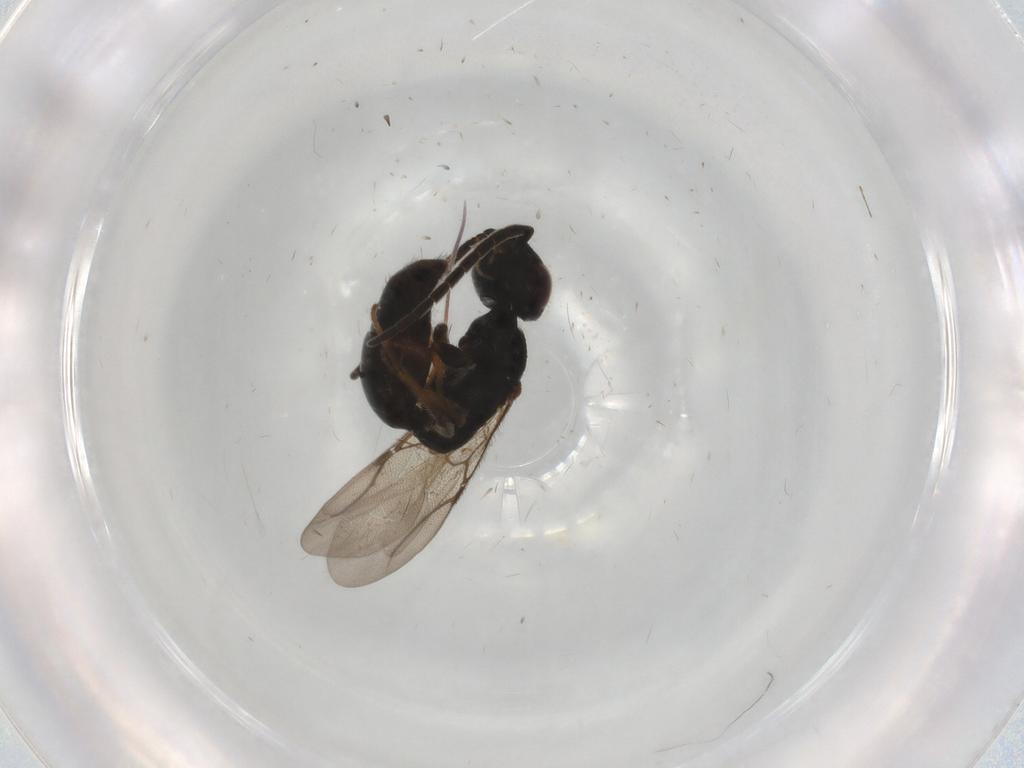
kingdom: Animalia
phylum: Arthropoda
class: Insecta
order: Hymenoptera
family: Bethylidae
